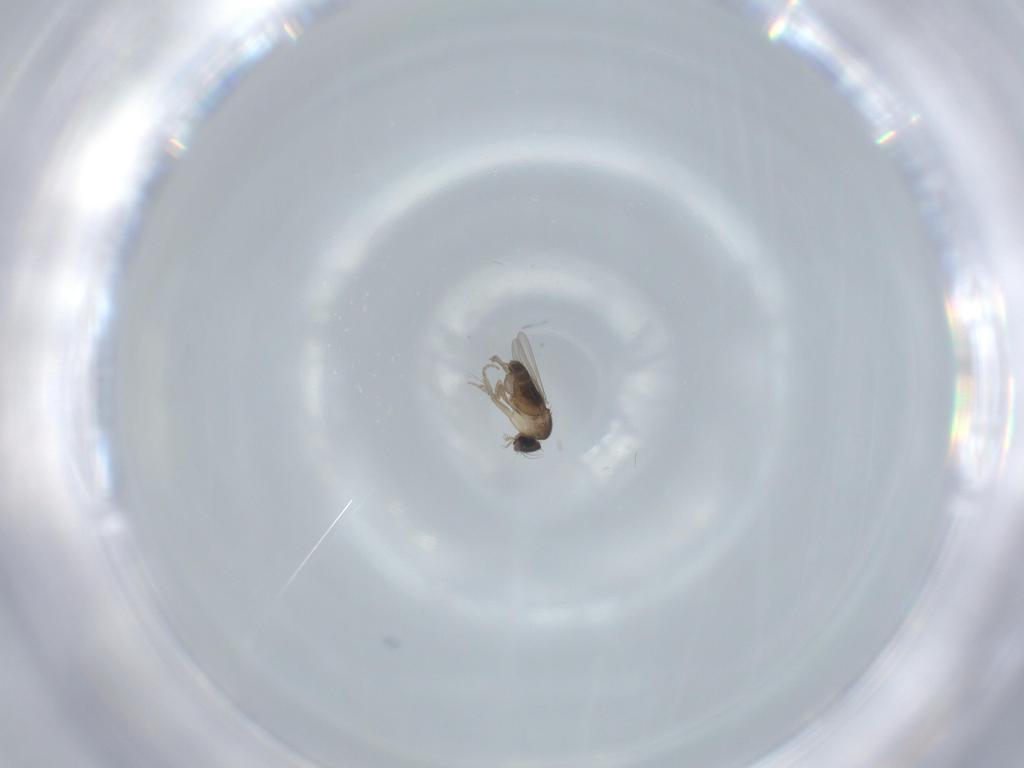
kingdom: Animalia
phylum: Arthropoda
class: Insecta
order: Diptera
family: Phoridae
